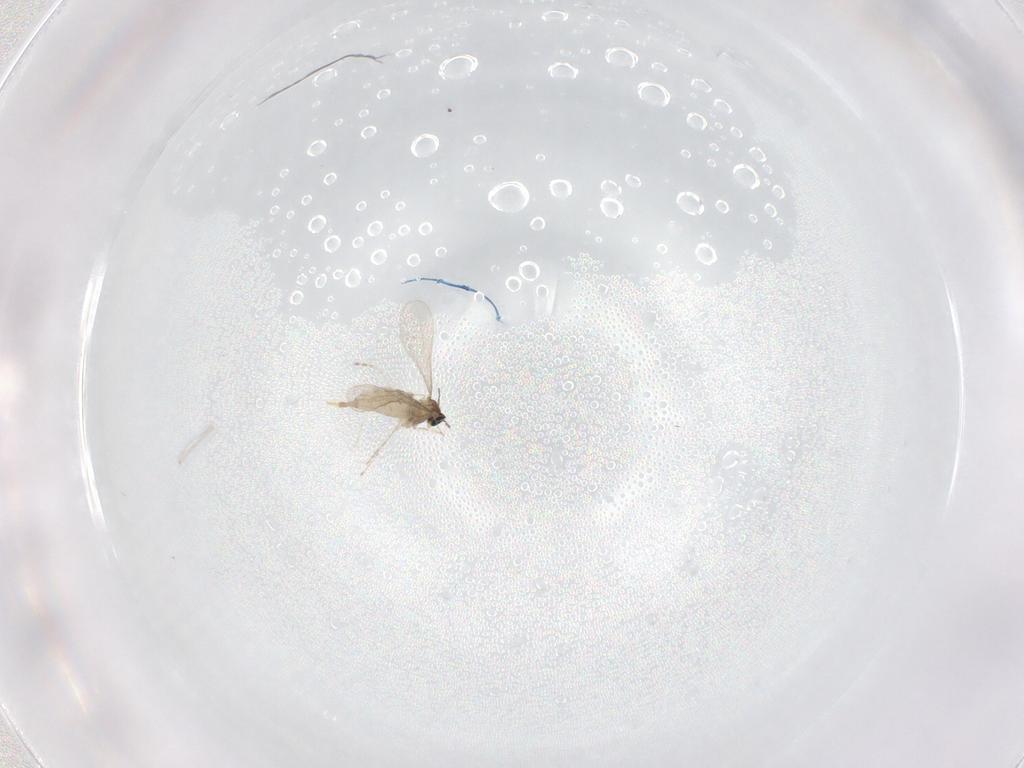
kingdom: Animalia
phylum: Arthropoda
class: Insecta
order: Diptera
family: Cecidomyiidae
